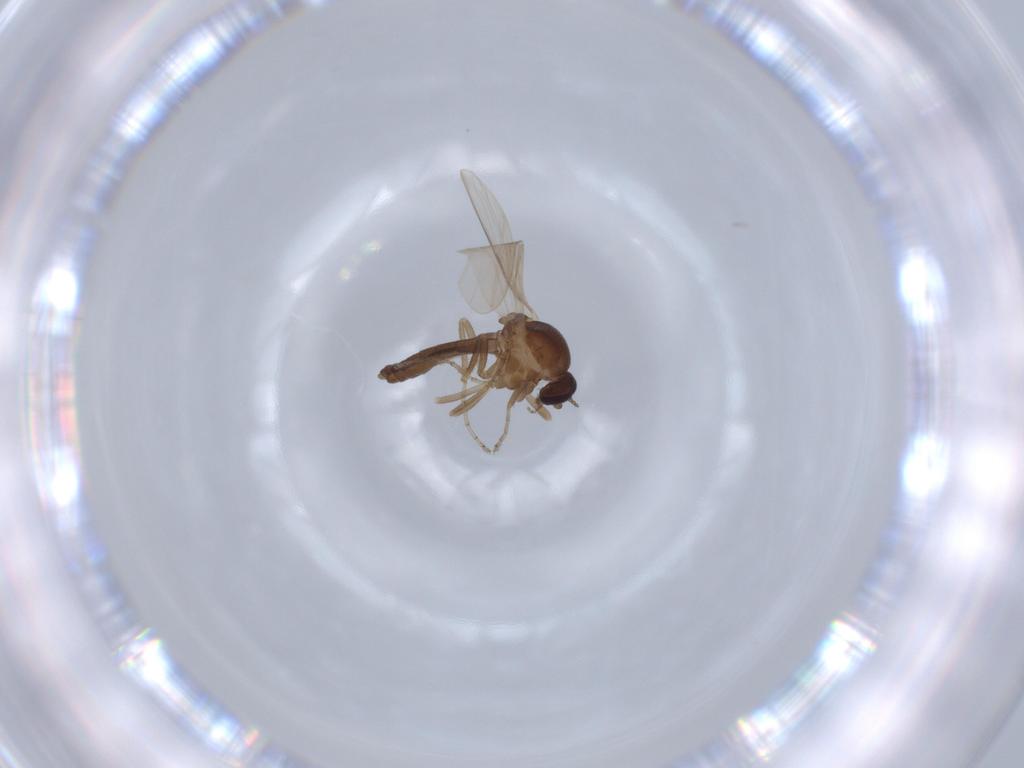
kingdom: Animalia
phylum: Arthropoda
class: Insecta
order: Diptera
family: Ceratopogonidae
